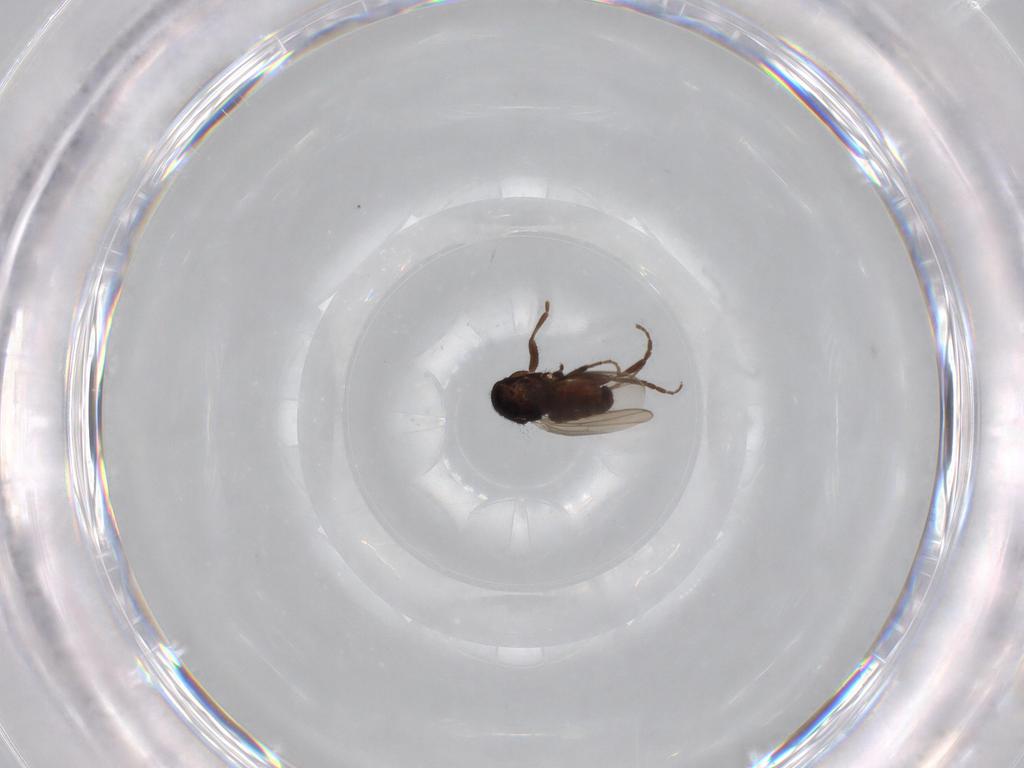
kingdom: Animalia
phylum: Arthropoda
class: Insecta
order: Diptera
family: Sphaeroceridae
